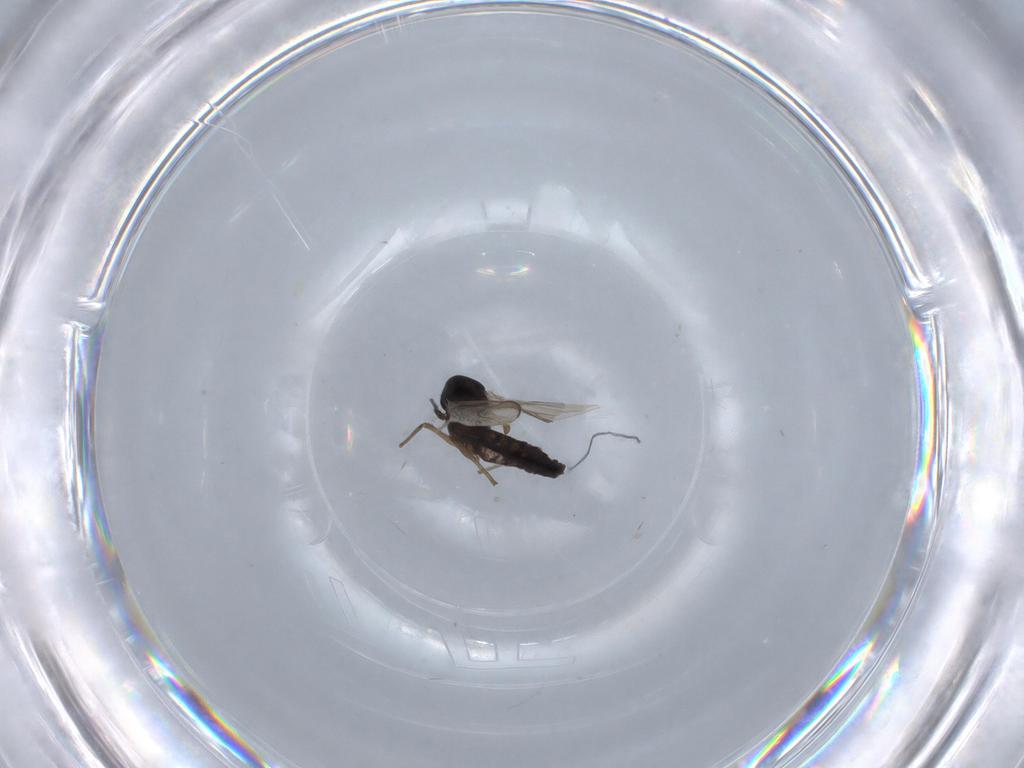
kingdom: Animalia
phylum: Arthropoda
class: Insecta
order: Diptera
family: Chironomidae
